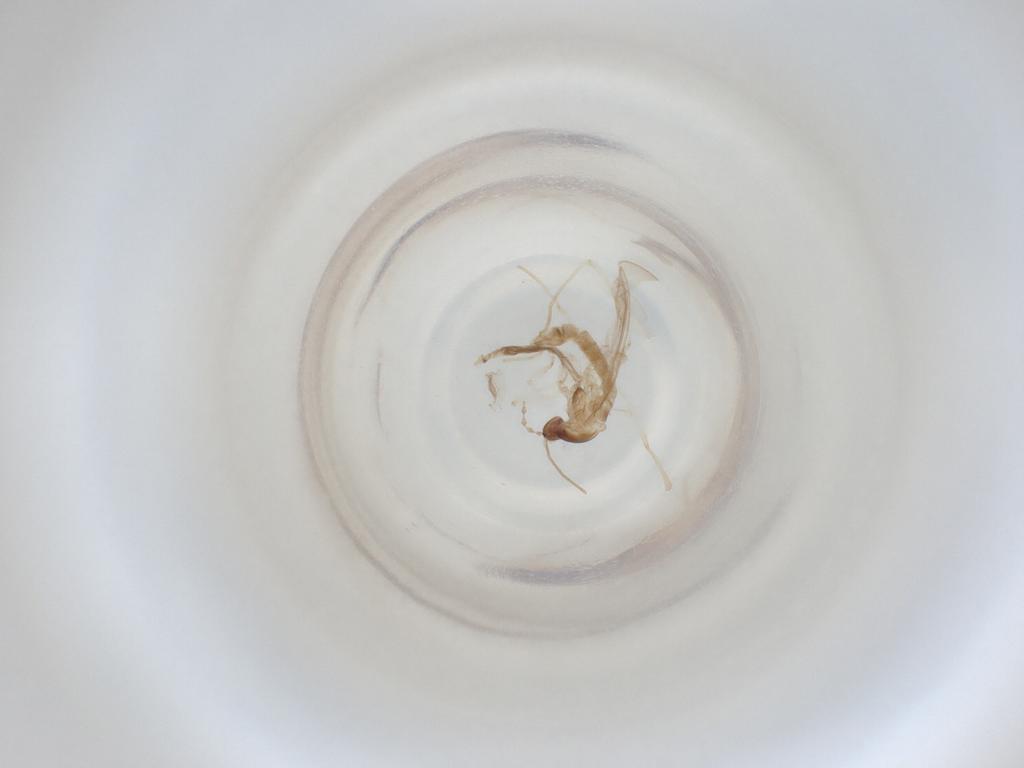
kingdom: Animalia
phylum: Arthropoda
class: Insecta
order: Diptera
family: Cecidomyiidae
